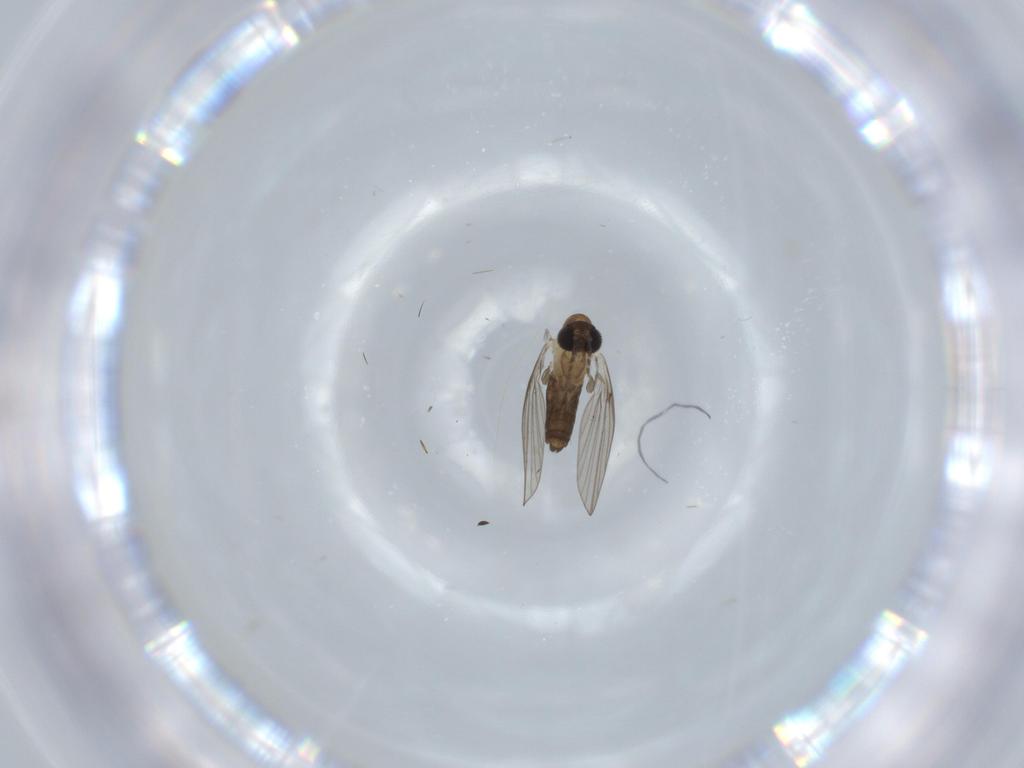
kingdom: Animalia
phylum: Arthropoda
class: Insecta
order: Diptera
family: Psychodidae
